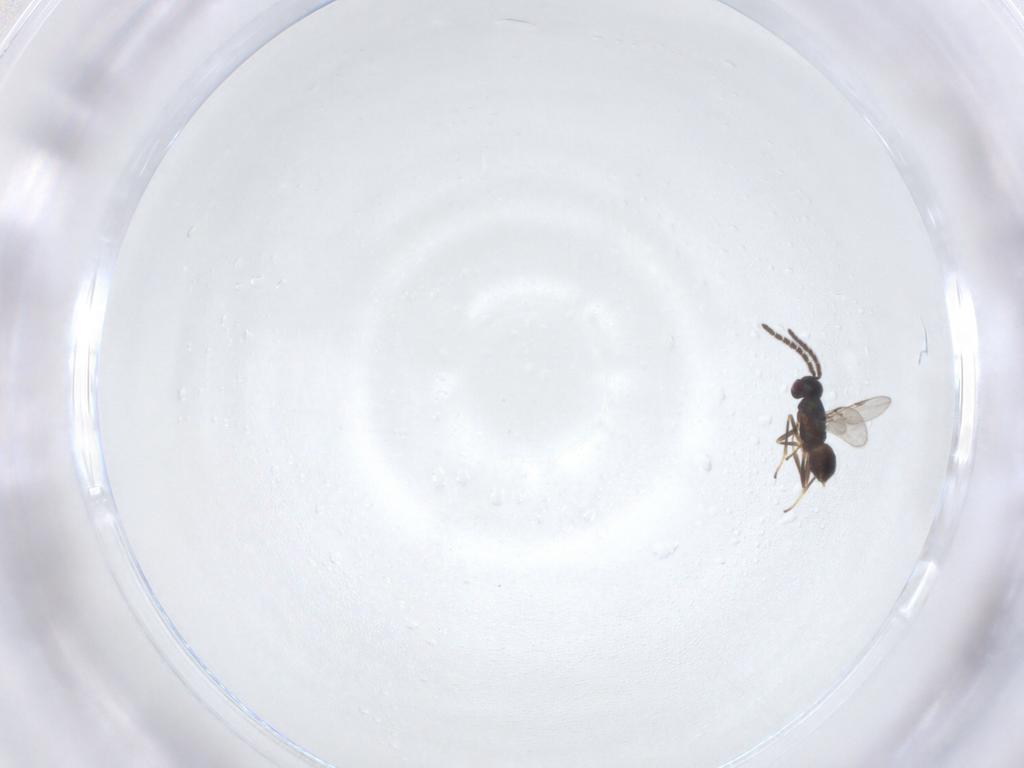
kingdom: Animalia
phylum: Arthropoda
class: Insecta
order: Hymenoptera
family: Encyrtidae
